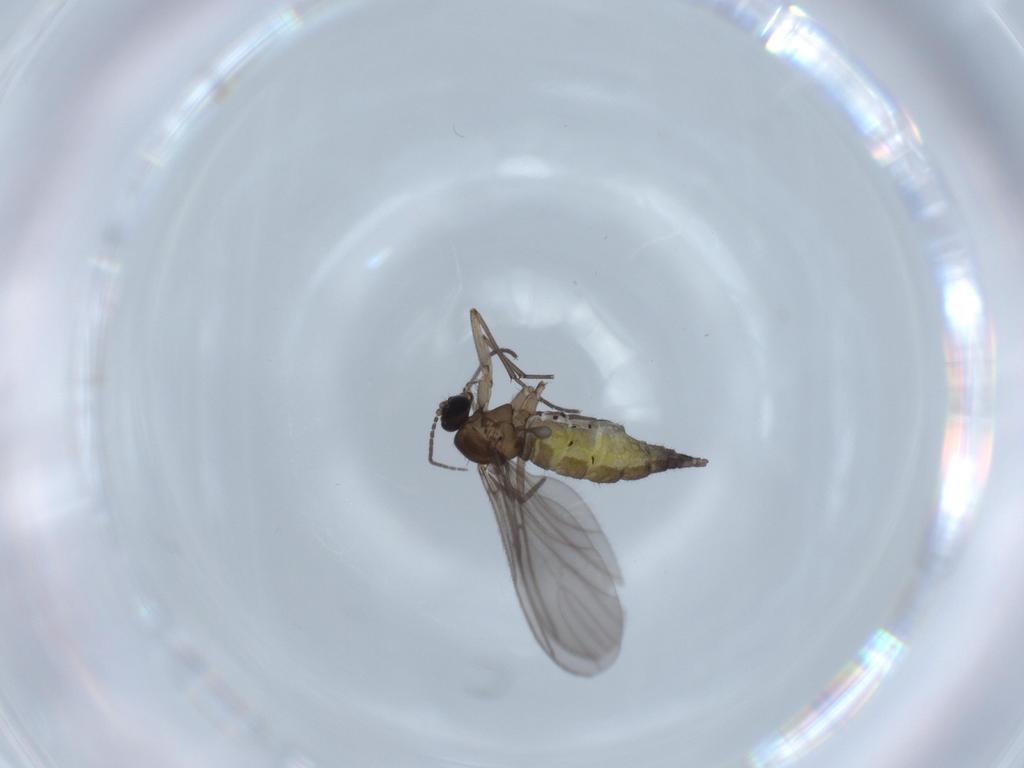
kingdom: Animalia
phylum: Arthropoda
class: Insecta
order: Diptera
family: Sciaridae
